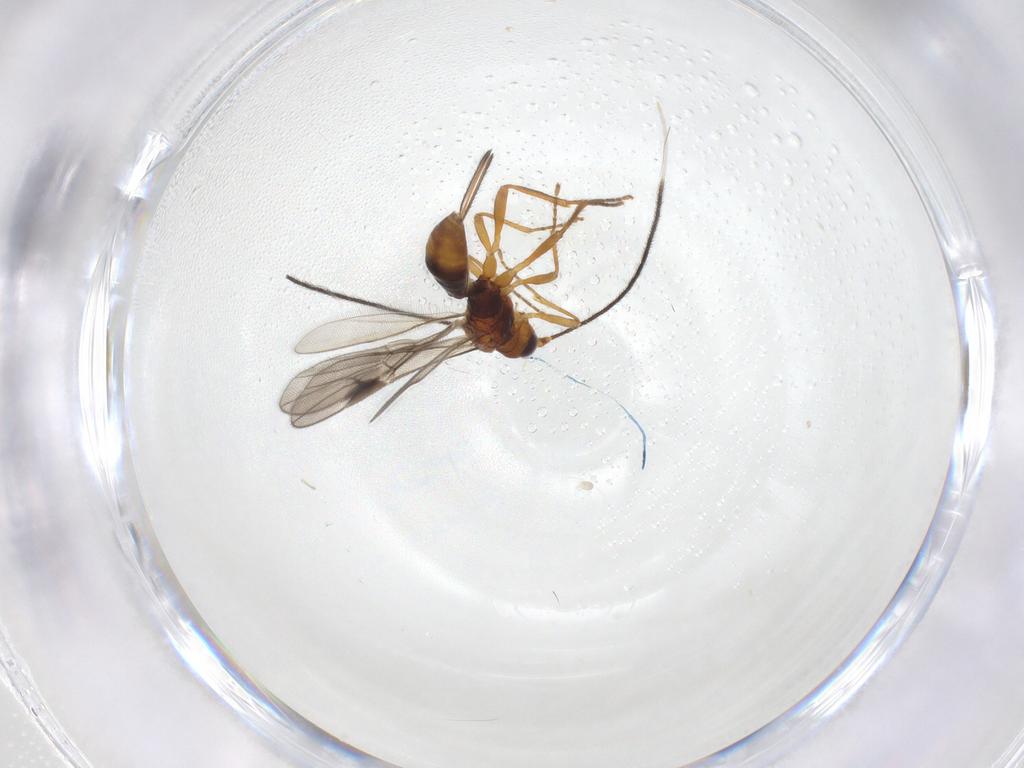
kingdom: Animalia
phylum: Arthropoda
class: Insecta
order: Hymenoptera
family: Braconidae
